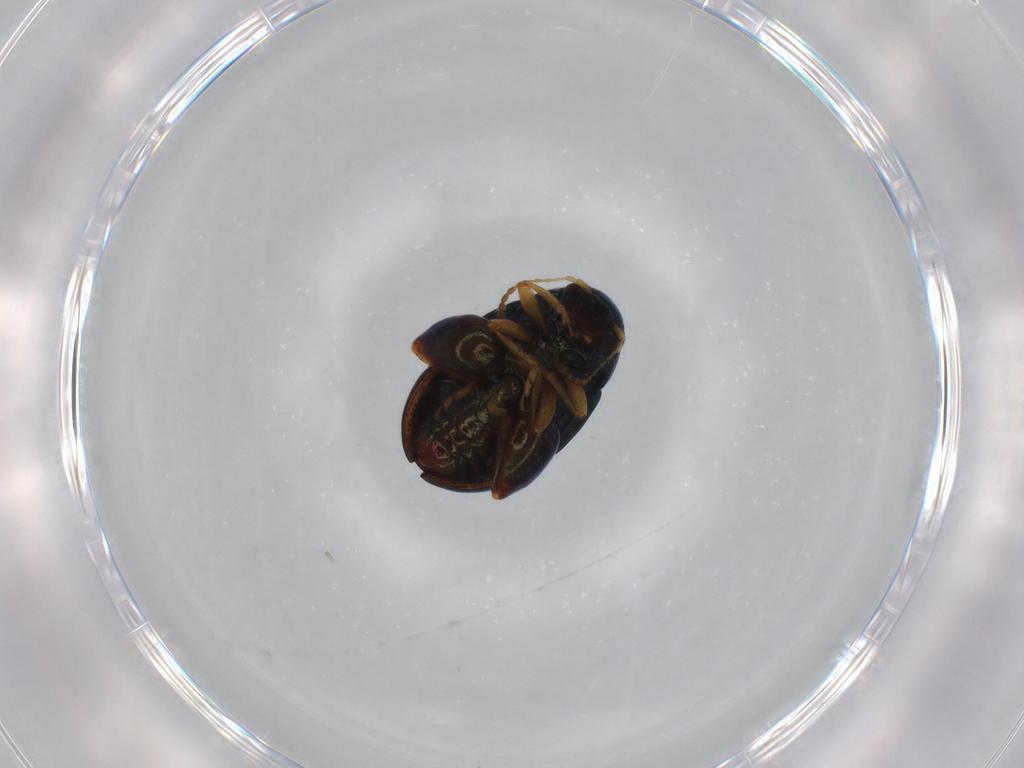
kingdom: Animalia
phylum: Arthropoda
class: Insecta
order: Coleoptera
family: Chrysomelidae
